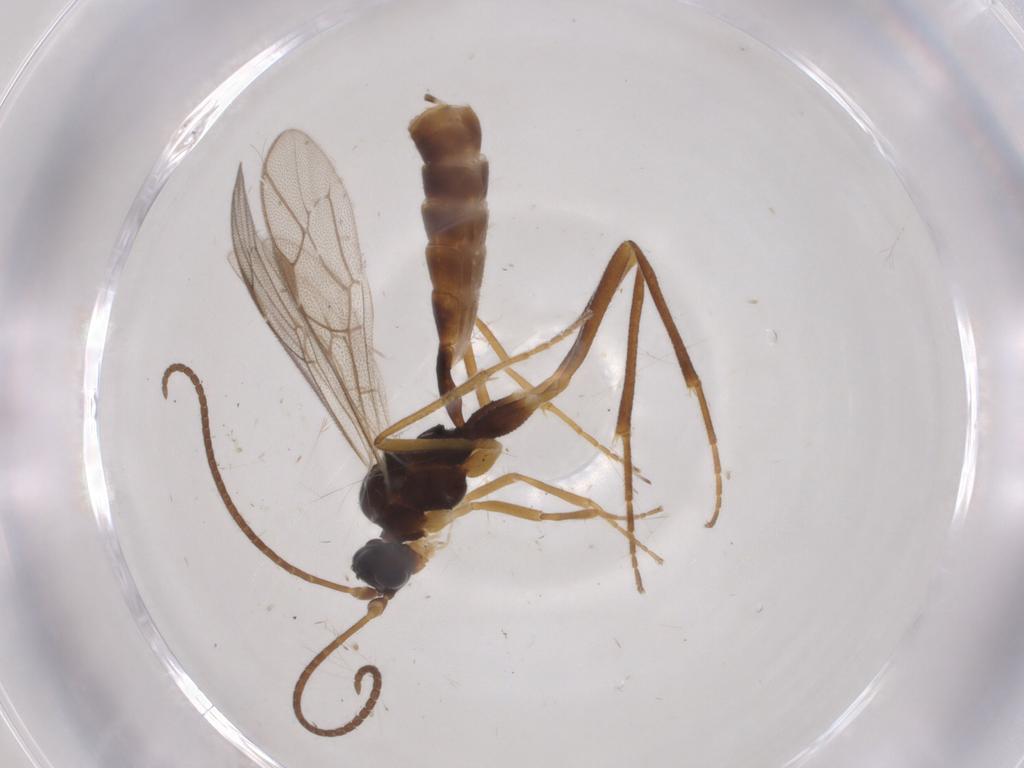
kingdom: Animalia
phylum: Arthropoda
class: Insecta
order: Hymenoptera
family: Ichneumonidae
